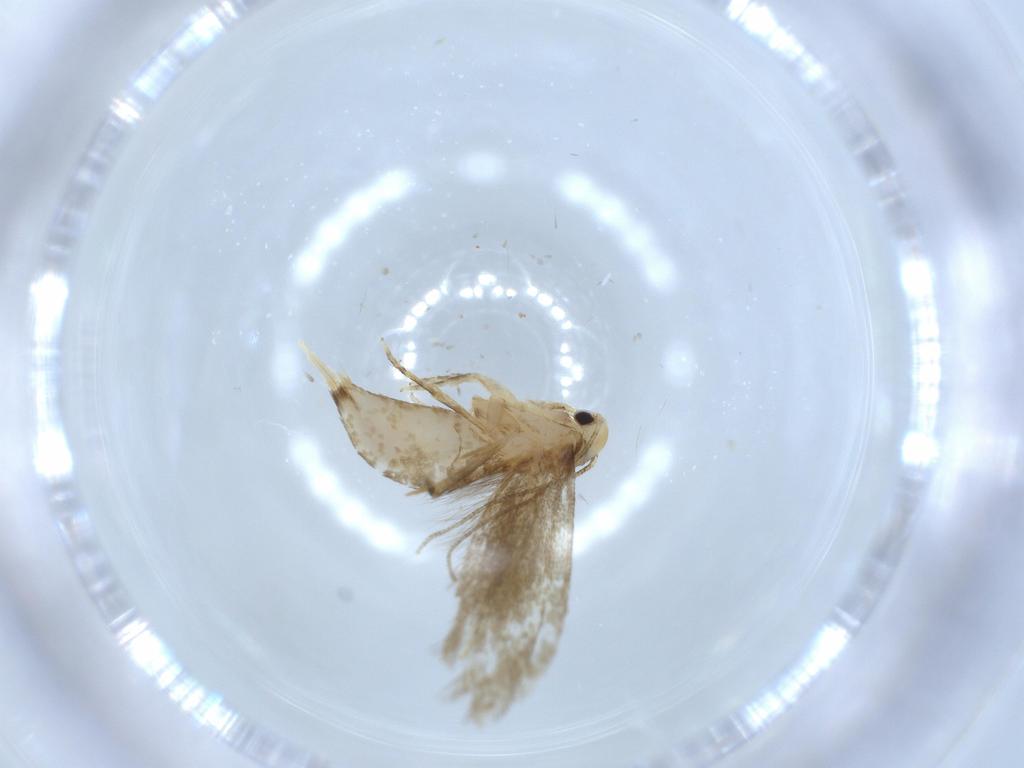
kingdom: Animalia
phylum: Arthropoda
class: Insecta
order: Lepidoptera
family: Tineidae
